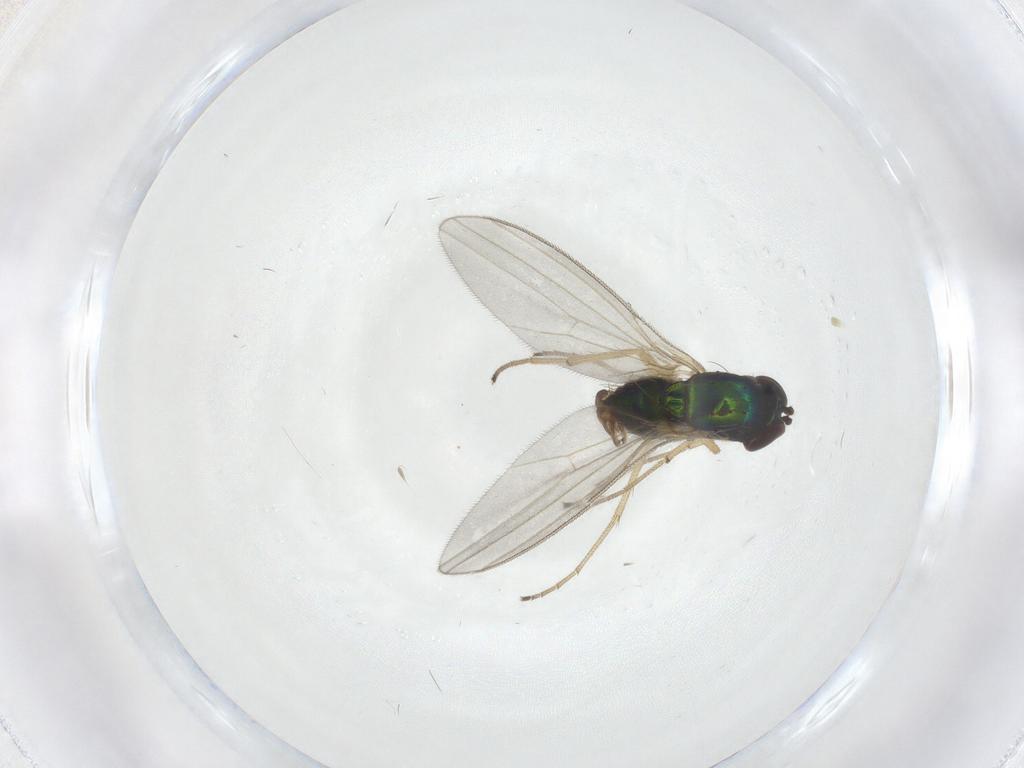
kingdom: Animalia
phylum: Arthropoda
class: Insecta
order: Diptera
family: Dolichopodidae
